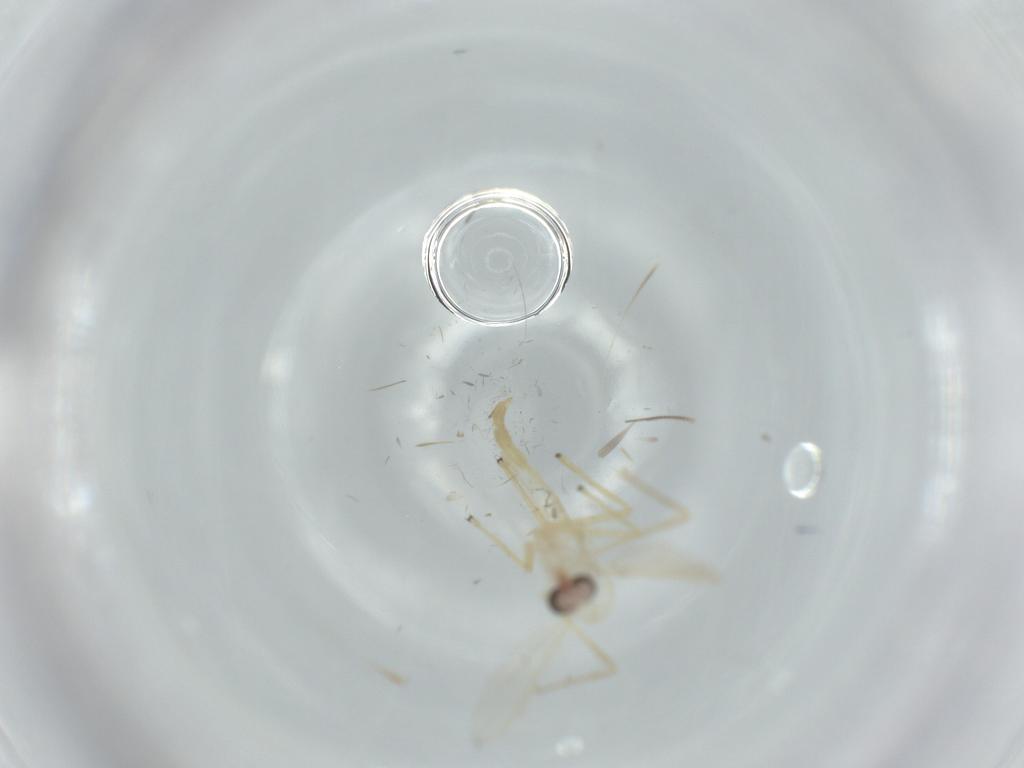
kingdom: Animalia
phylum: Arthropoda
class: Insecta
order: Diptera
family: Chironomidae
